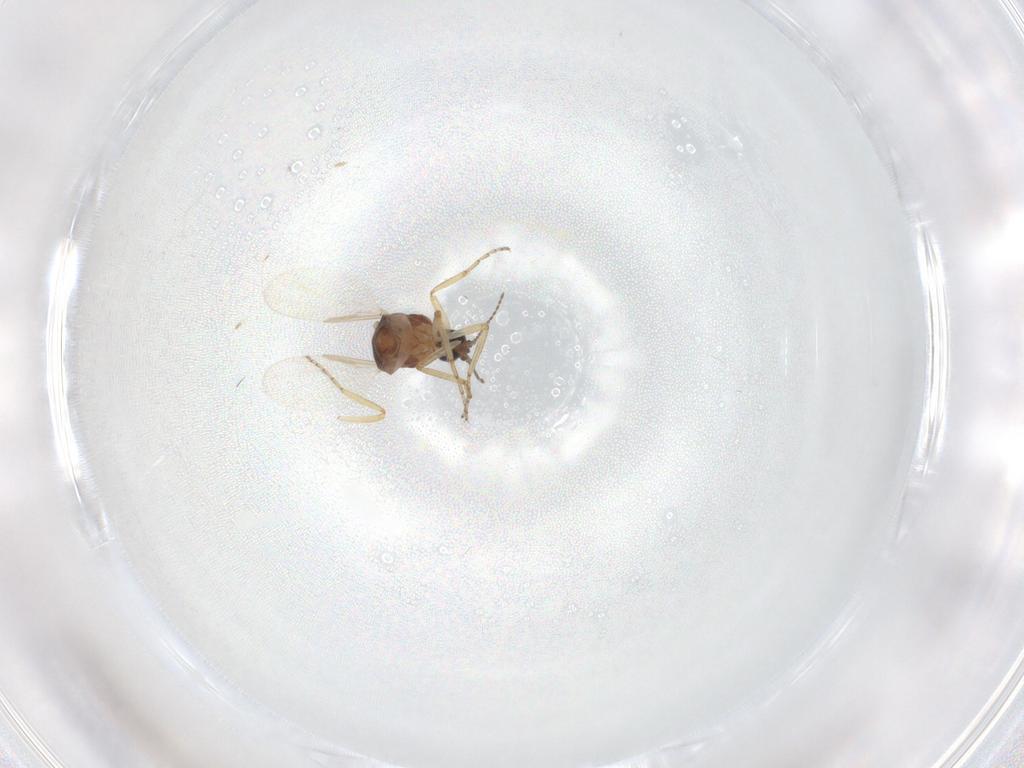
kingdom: Animalia
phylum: Arthropoda
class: Insecta
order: Diptera
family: Ceratopogonidae
